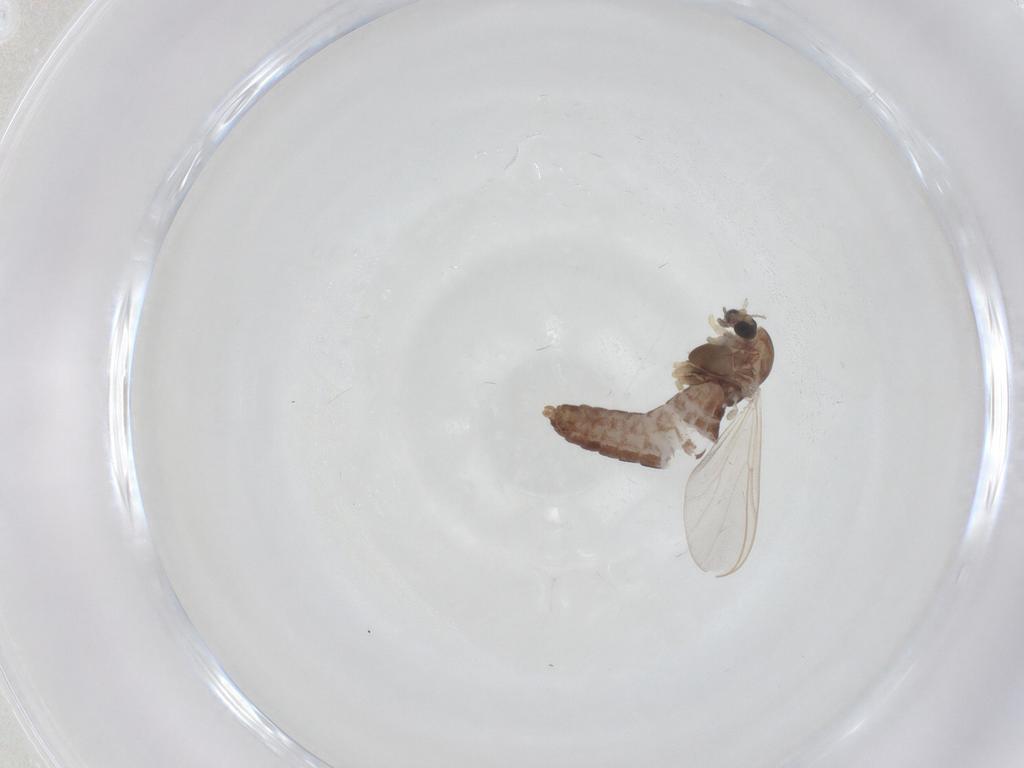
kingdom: Animalia
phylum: Arthropoda
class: Insecta
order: Diptera
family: Chironomidae
